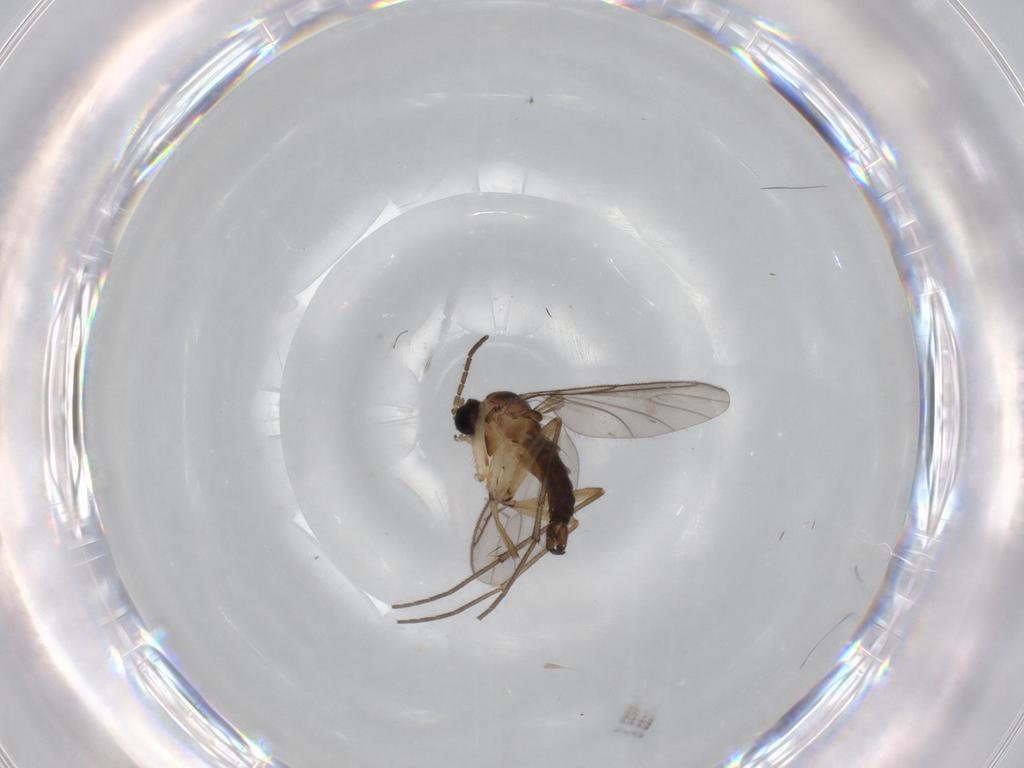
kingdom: Animalia
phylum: Arthropoda
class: Insecta
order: Diptera
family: Sciaridae
